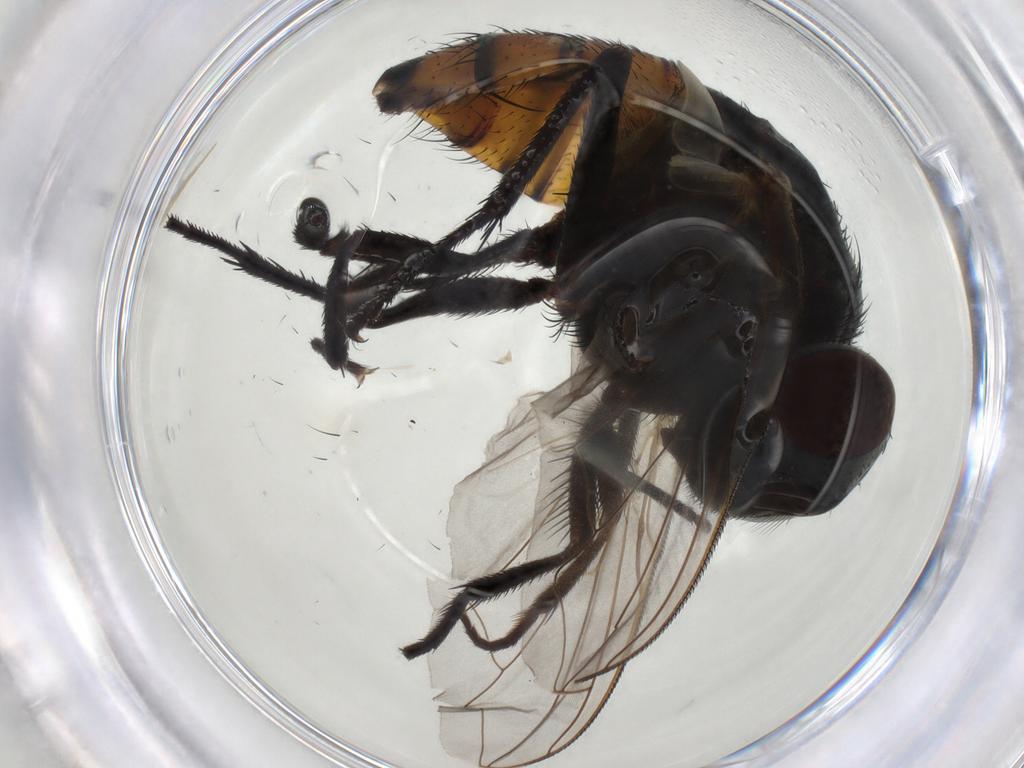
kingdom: Animalia
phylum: Arthropoda
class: Insecta
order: Diptera
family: Muscidae
